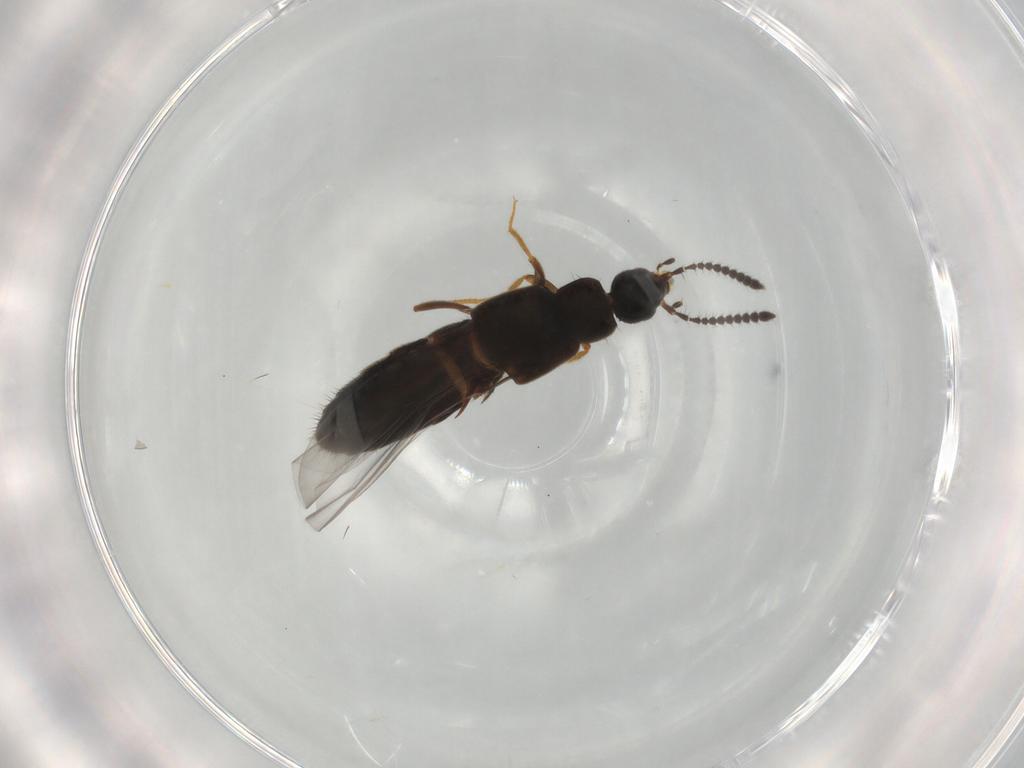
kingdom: Animalia
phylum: Arthropoda
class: Insecta
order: Coleoptera
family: Staphylinidae
